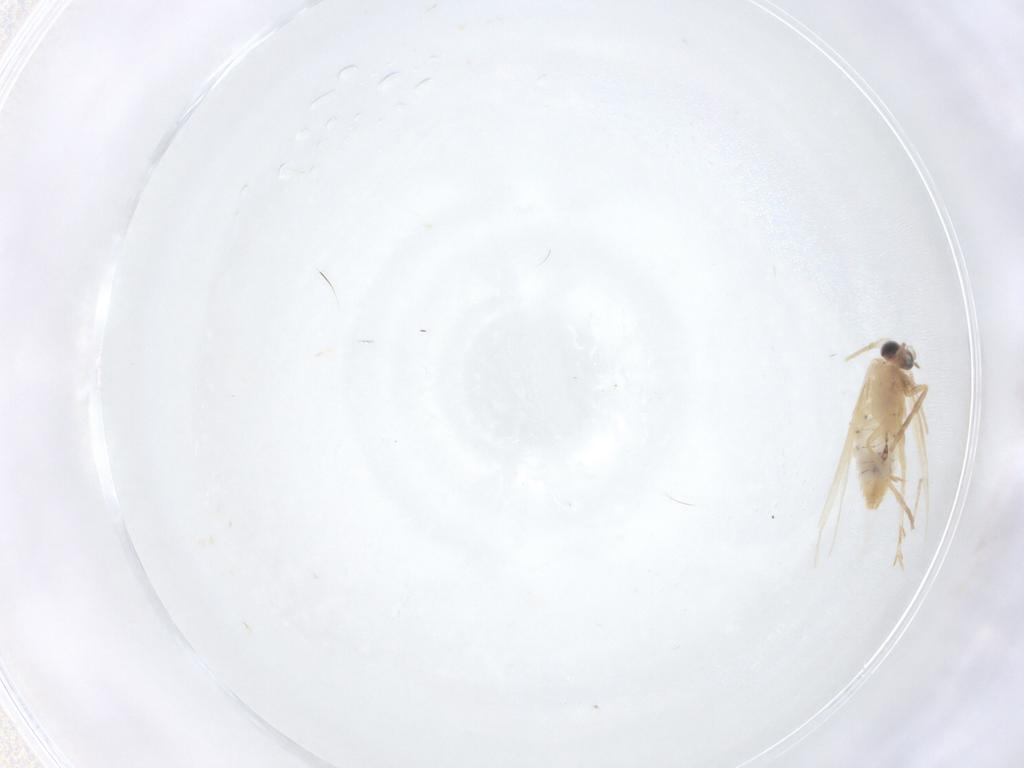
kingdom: Animalia
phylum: Arthropoda
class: Insecta
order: Lepidoptera
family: Nepticulidae
